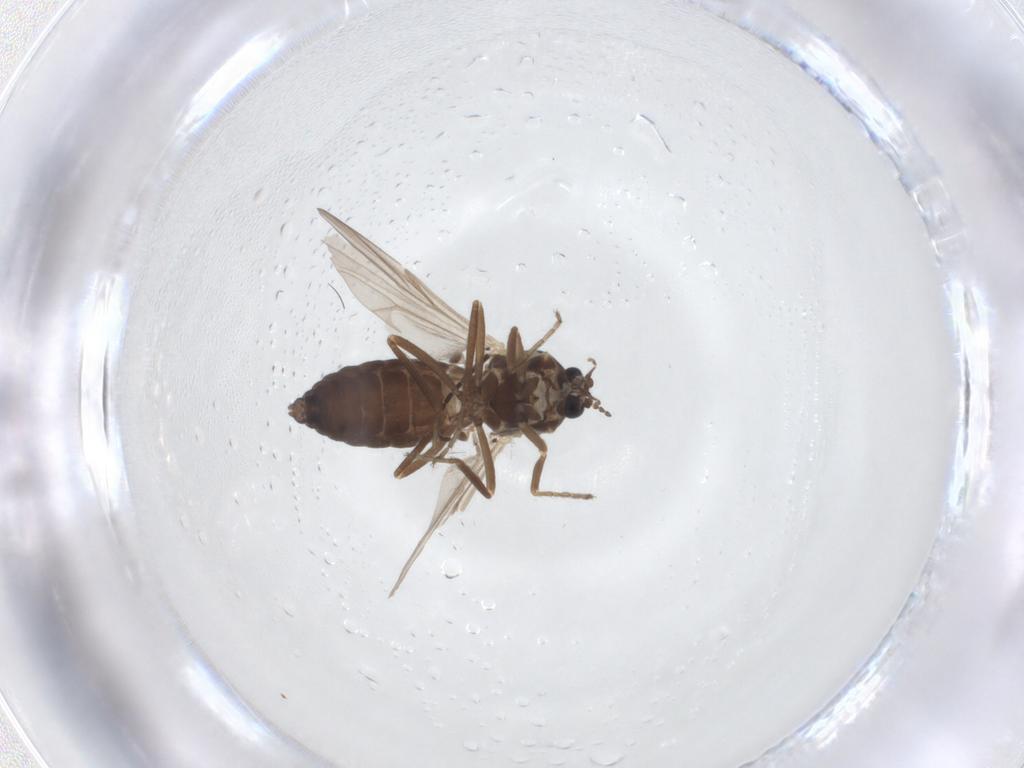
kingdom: Animalia
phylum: Arthropoda
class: Insecta
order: Diptera
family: Ceratopogonidae
